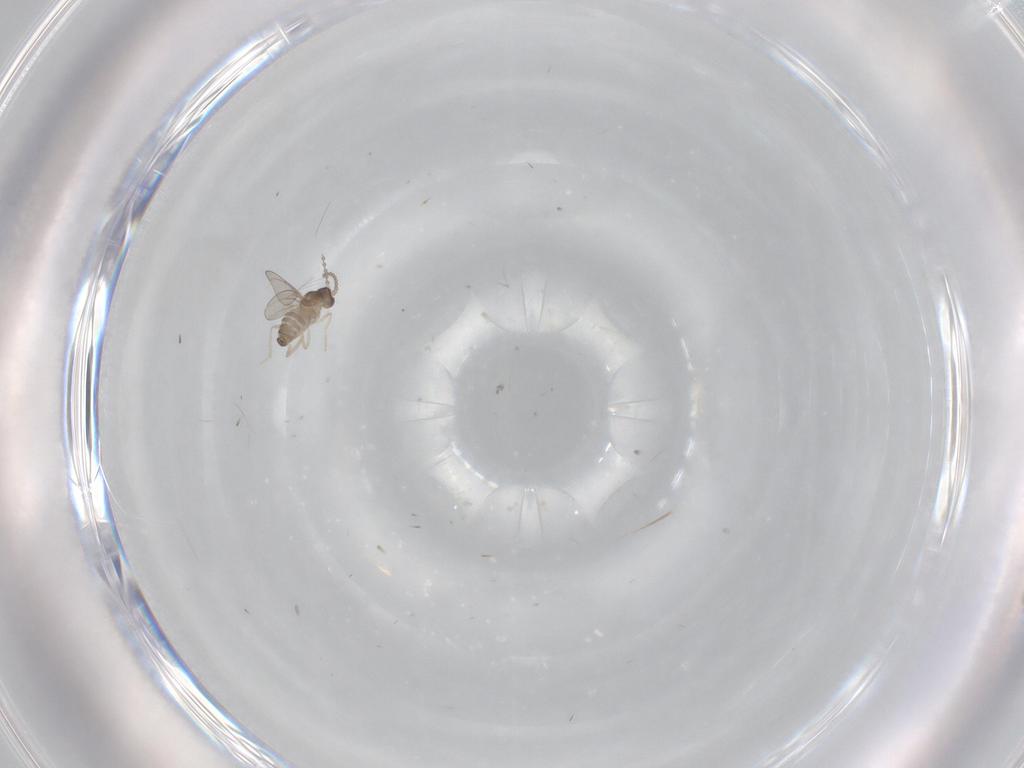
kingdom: Animalia
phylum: Arthropoda
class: Insecta
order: Diptera
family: Cecidomyiidae
